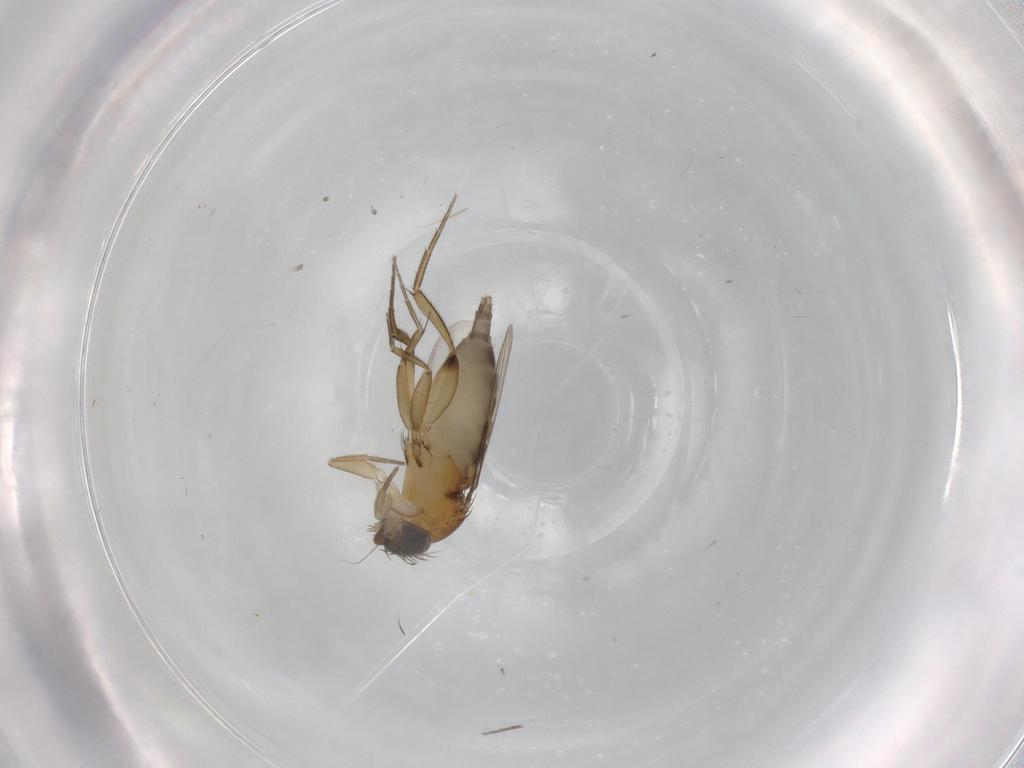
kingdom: Animalia
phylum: Arthropoda
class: Insecta
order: Diptera
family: Phoridae
